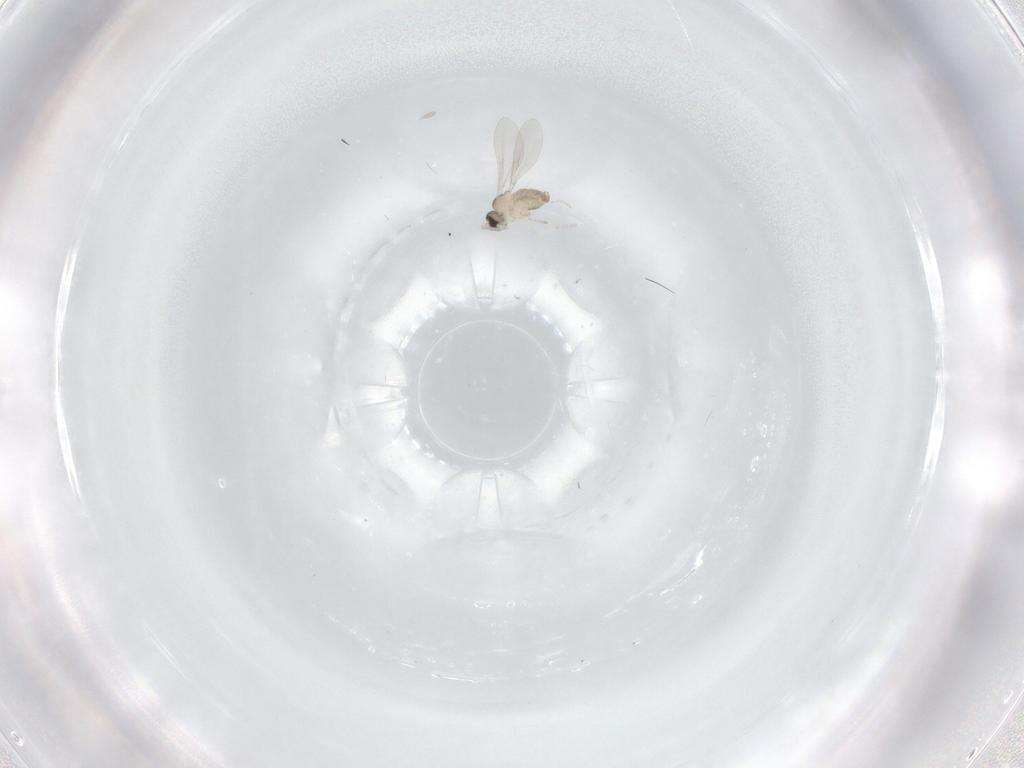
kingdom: Animalia
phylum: Arthropoda
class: Insecta
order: Diptera
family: Cecidomyiidae
